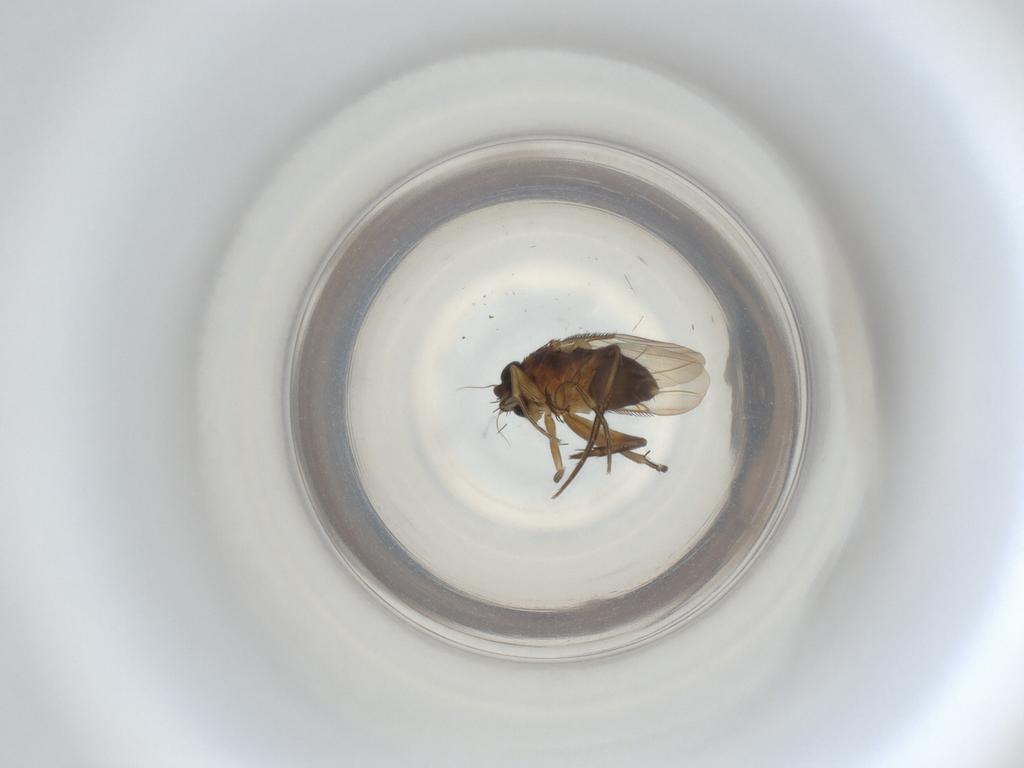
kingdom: Animalia
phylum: Arthropoda
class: Insecta
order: Diptera
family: Phoridae
